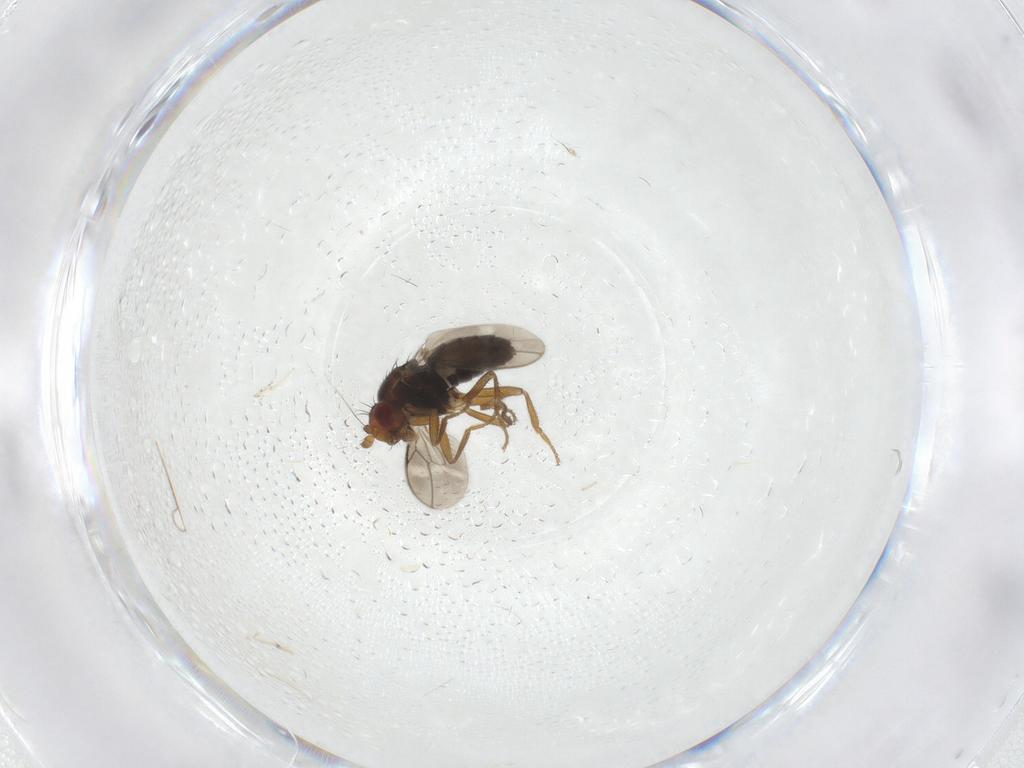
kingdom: Animalia
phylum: Arthropoda
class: Insecta
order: Diptera
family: Sphaeroceridae
